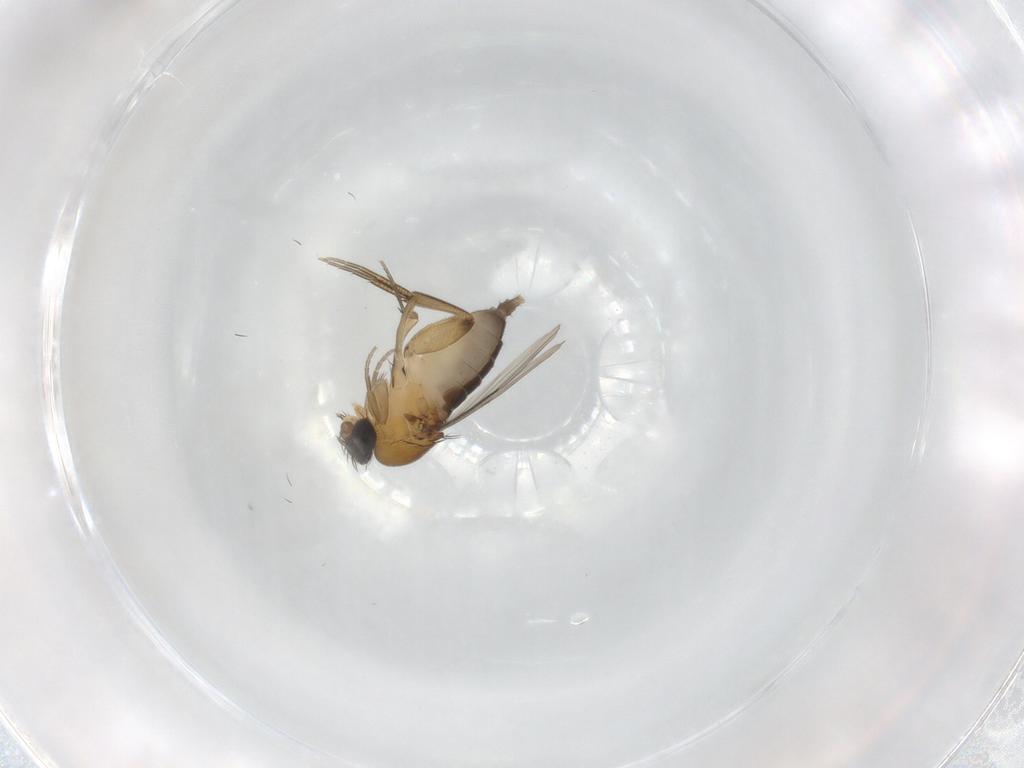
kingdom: Animalia
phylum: Arthropoda
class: Insecta
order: Diptera
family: Phoridae
